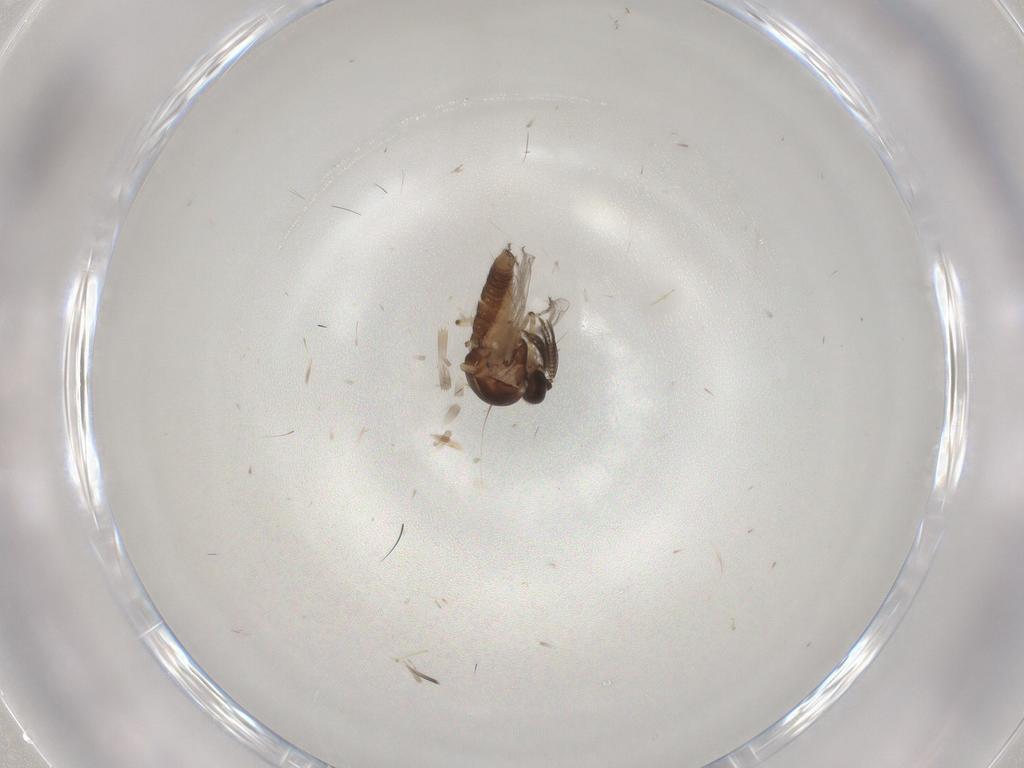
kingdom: Animalia
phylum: Arthropoda
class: Insecta
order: Diptera
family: Ceratopogonidae
